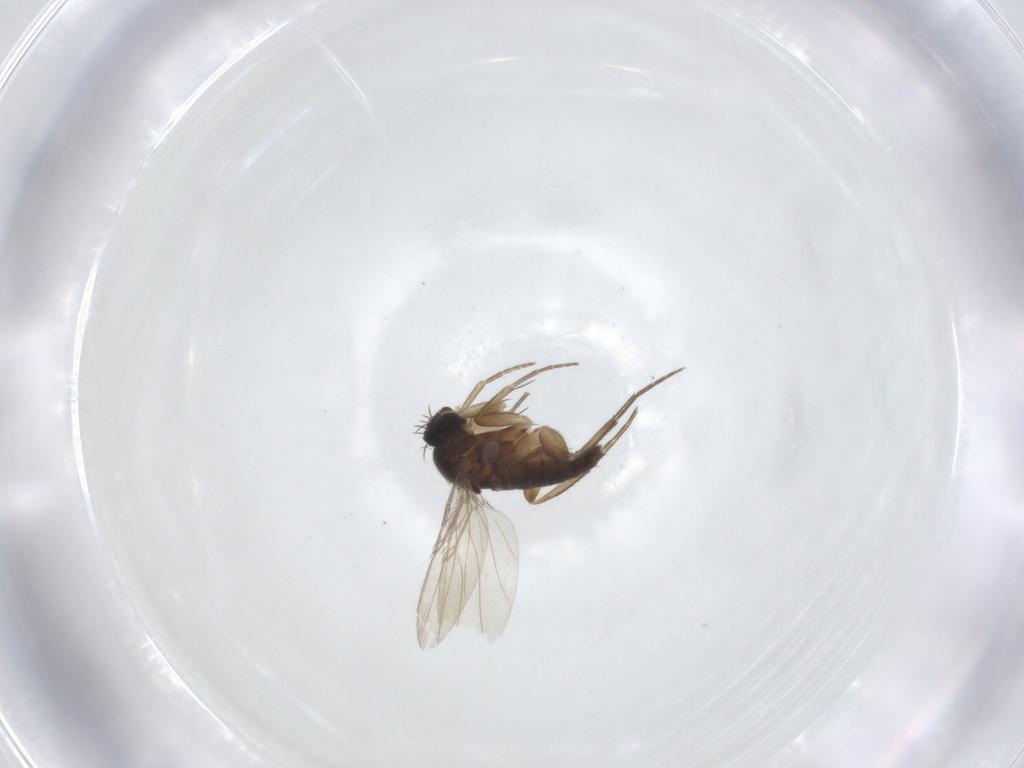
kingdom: Animalia
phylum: Arthropoda
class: Insecta
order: Diptera
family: Phoridae
